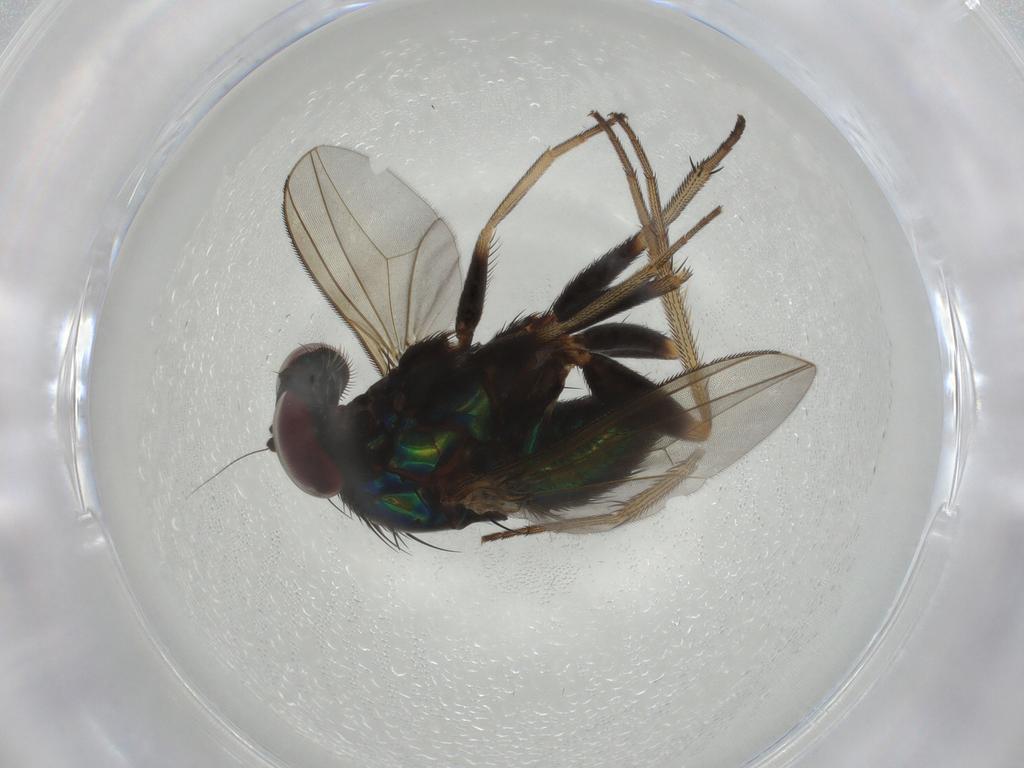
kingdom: Animalia
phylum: Arthropoda
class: Insecta
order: Diptera
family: Dolichopodidae
